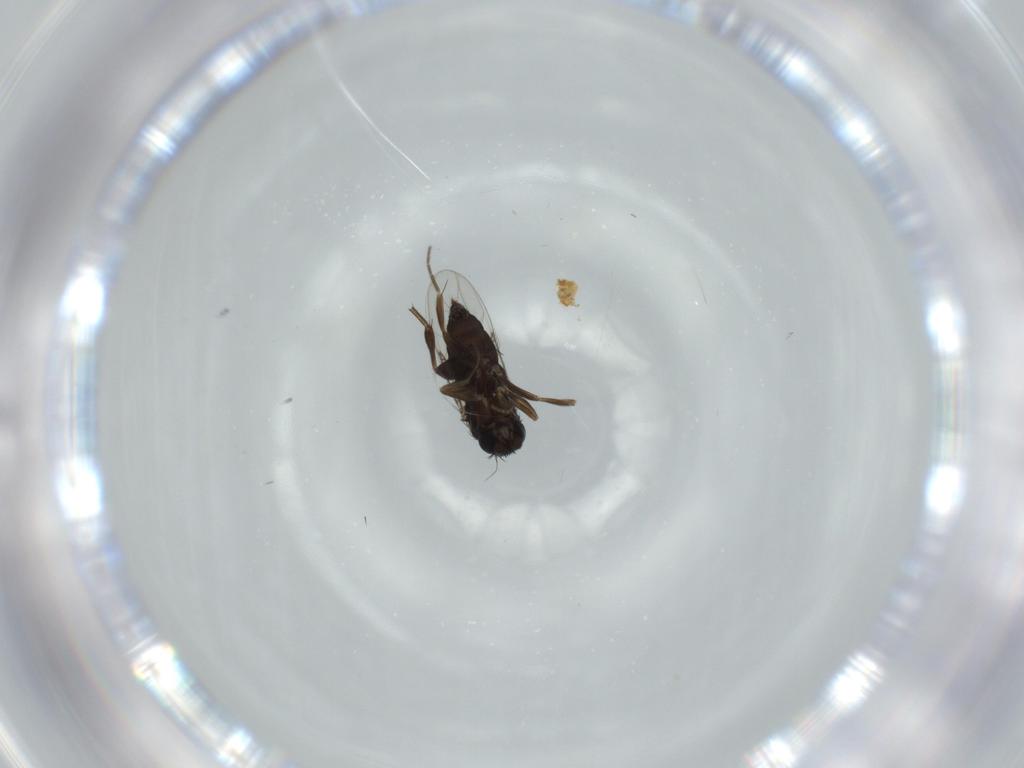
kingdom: Animalia
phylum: Arthropoda
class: Insecta
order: Diptera
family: Phoridae
